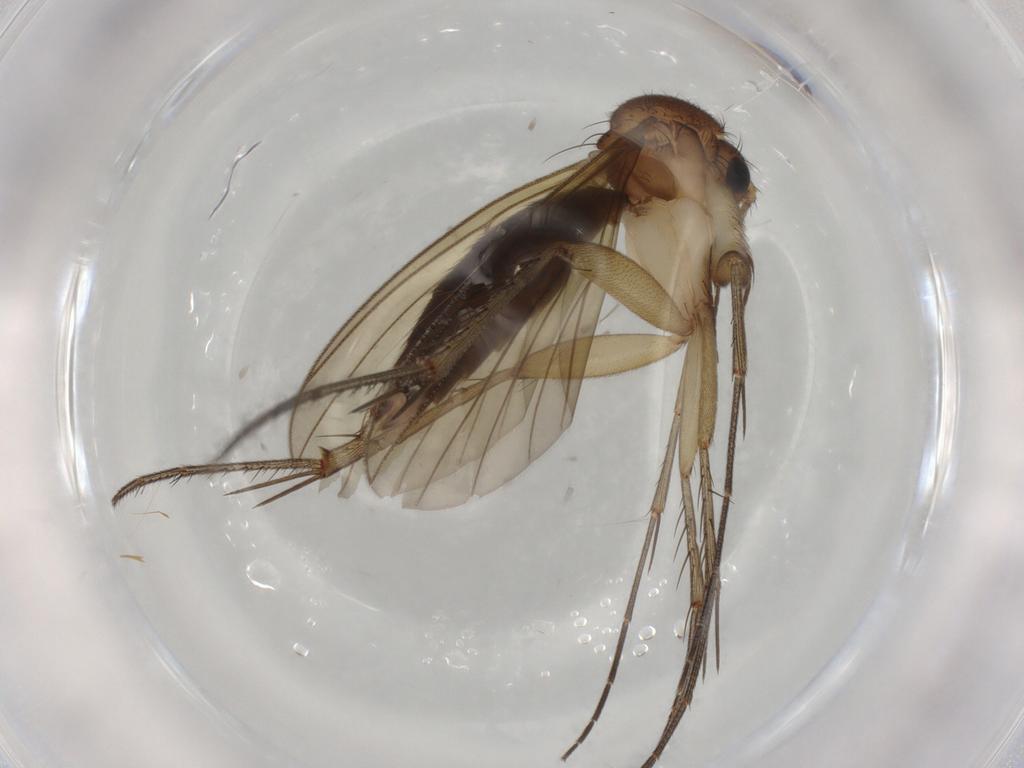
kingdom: Animalia
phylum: Arthropoda
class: Insecta
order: Diptera
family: Mycetophilidae
